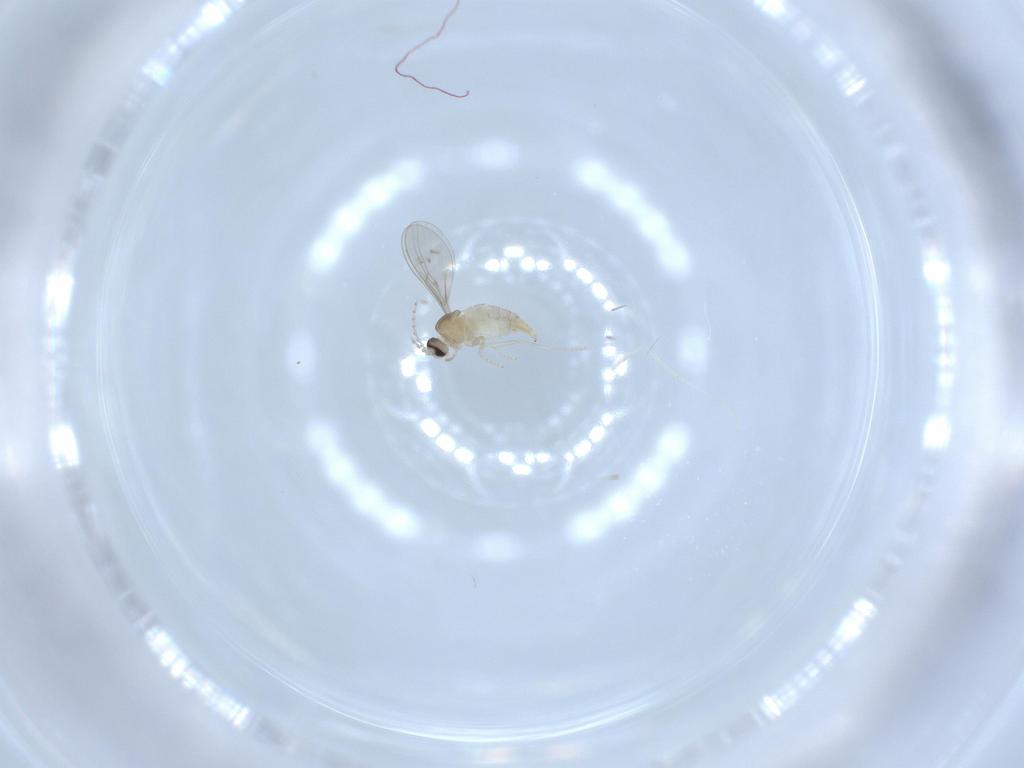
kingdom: Animalia
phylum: Arthropoda
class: Insecta
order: Diptera
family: Cecidomyiidae
